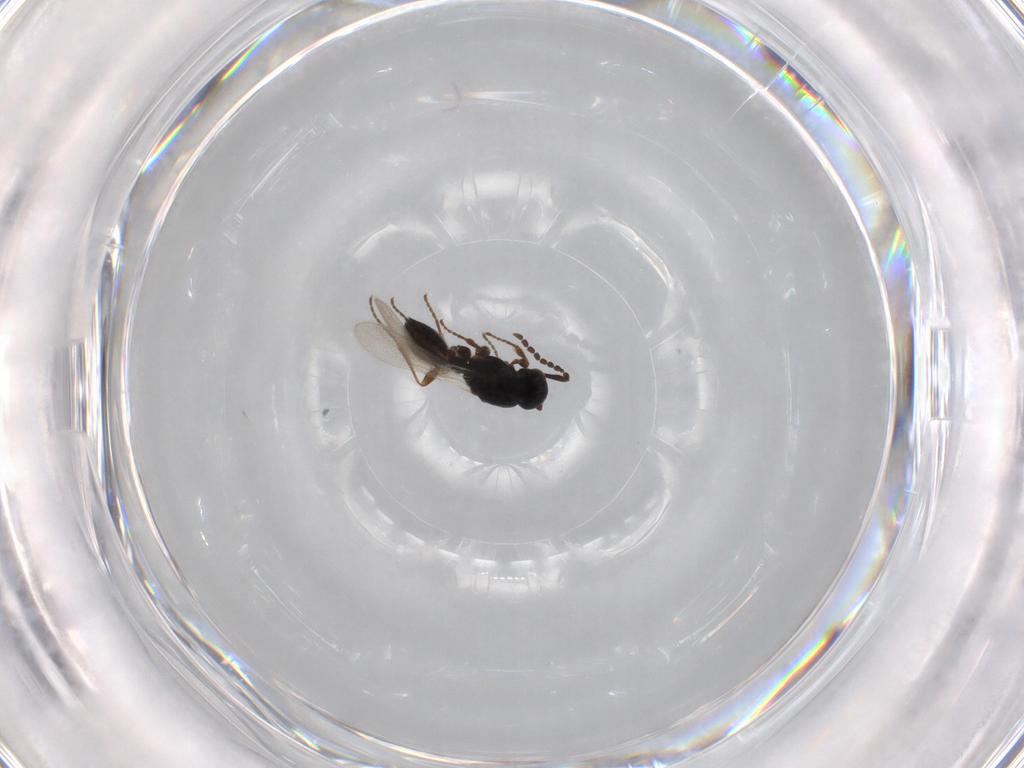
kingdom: Animalia
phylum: Arthropoda
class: Insecta
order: Hymenoptera
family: Platygastridae
